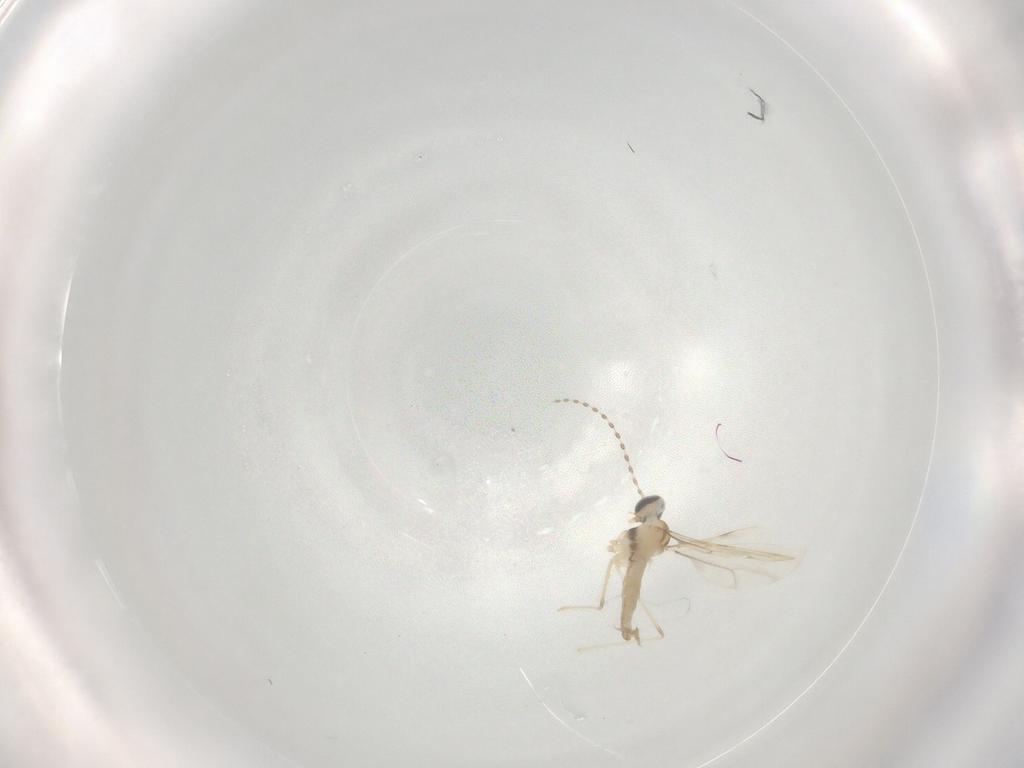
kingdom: Animalia
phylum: Arthropoda
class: Insecta
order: Diptera
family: Cecidomyiidae
